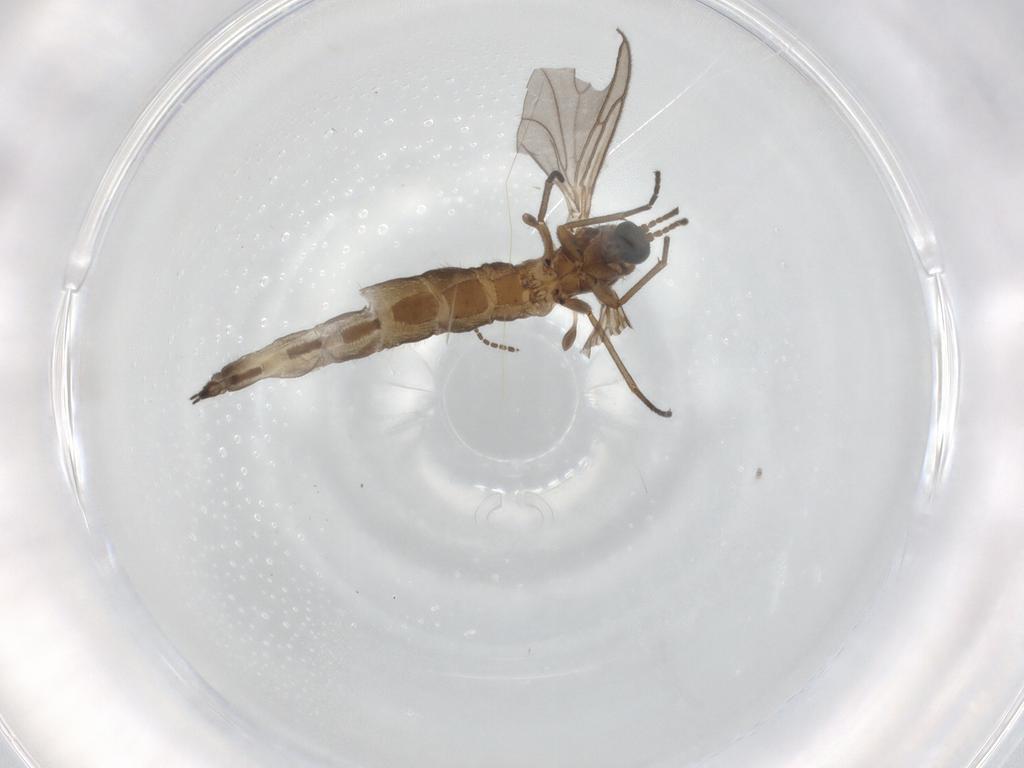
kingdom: Animalia
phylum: Arthropoda
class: Insecta
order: Diptera
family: Sciaridae
